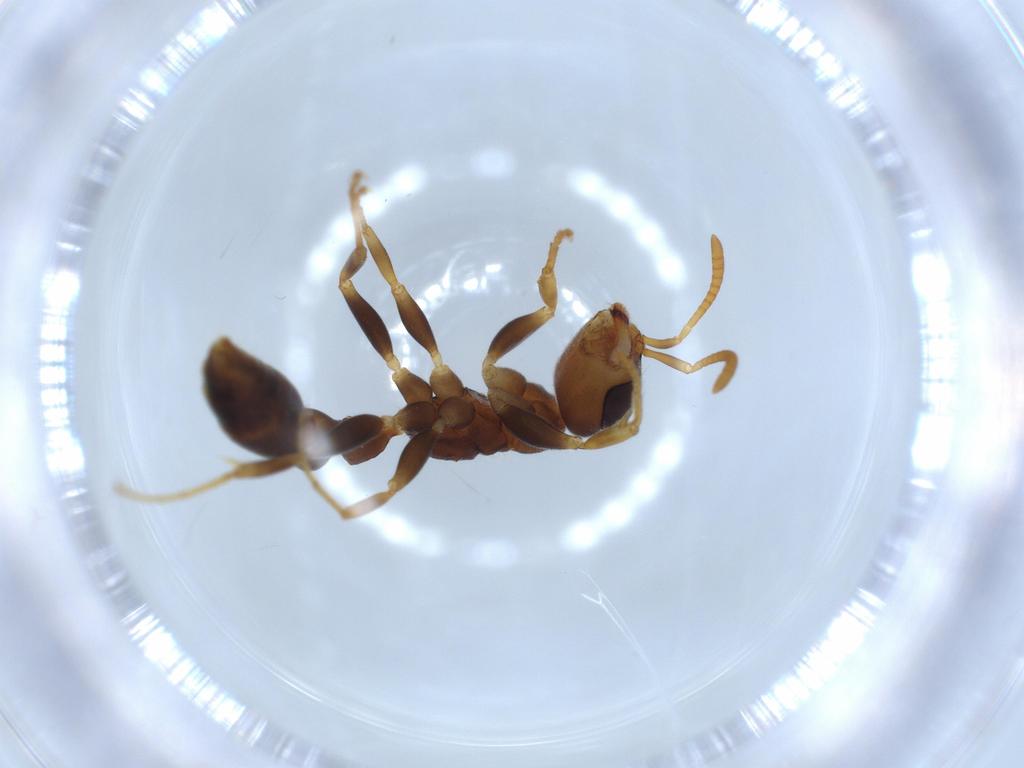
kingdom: Animalia
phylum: Arthropoda
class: Insecta
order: Hymenoptera
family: Formicidae
